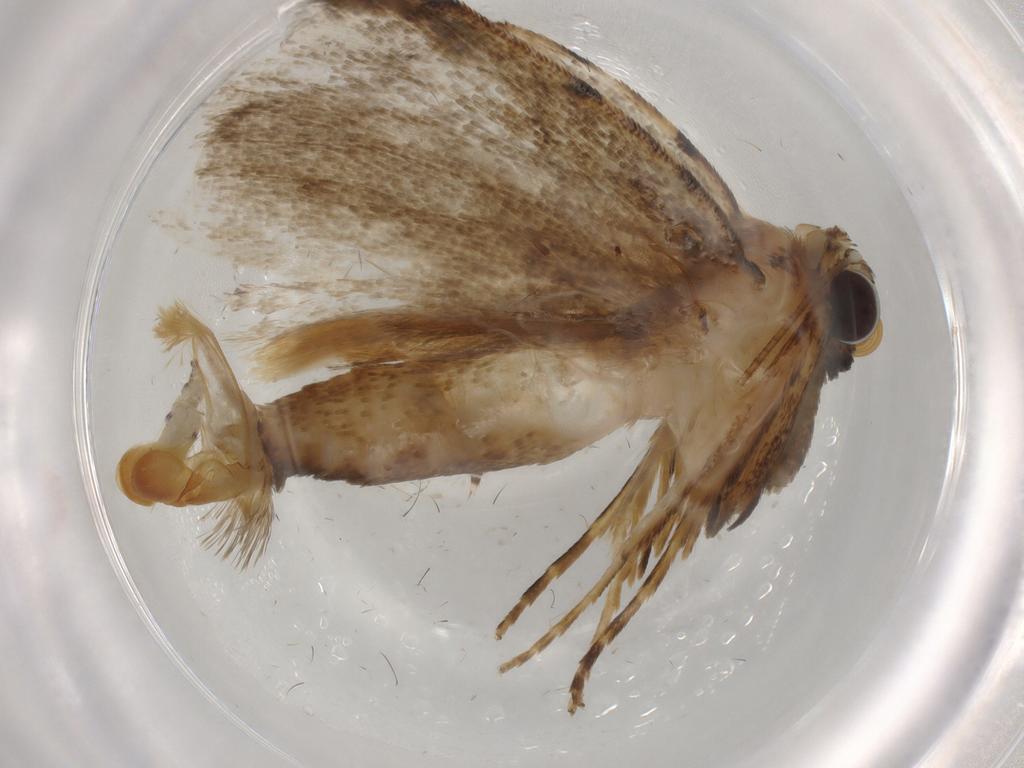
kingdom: Animalia
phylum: Arthropoda
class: Insecta
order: Lepidoptera
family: Erebidae
